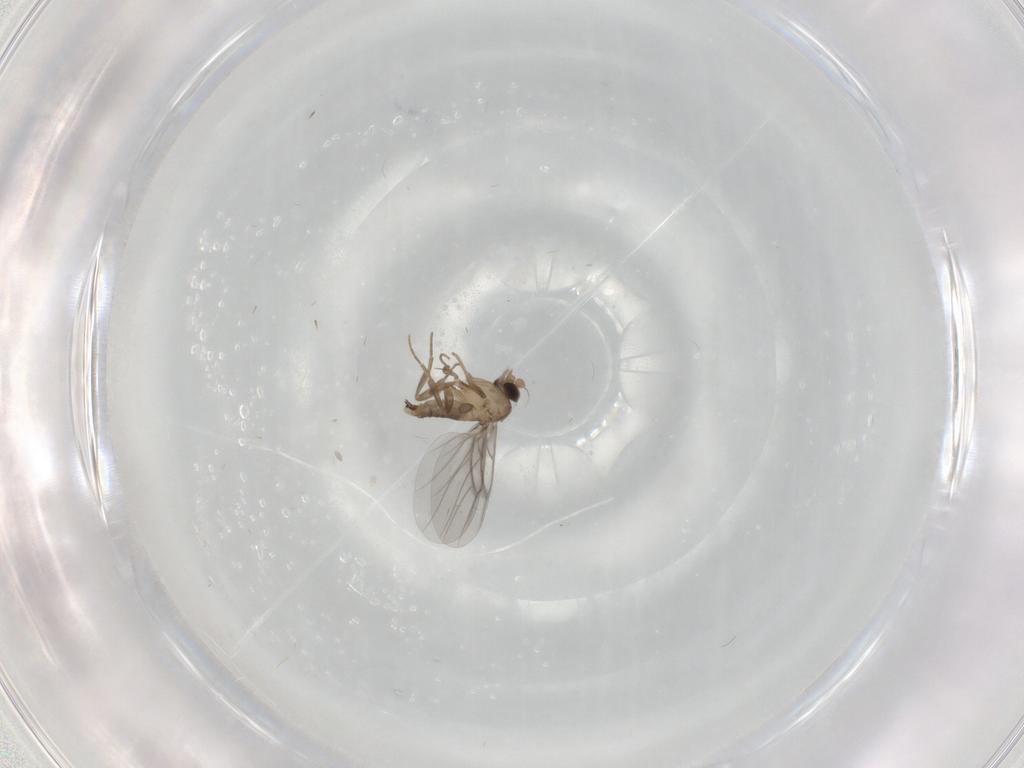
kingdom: Animalia
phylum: Arthropoda
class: Insecta
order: Diptera
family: Cecidomyiidae
